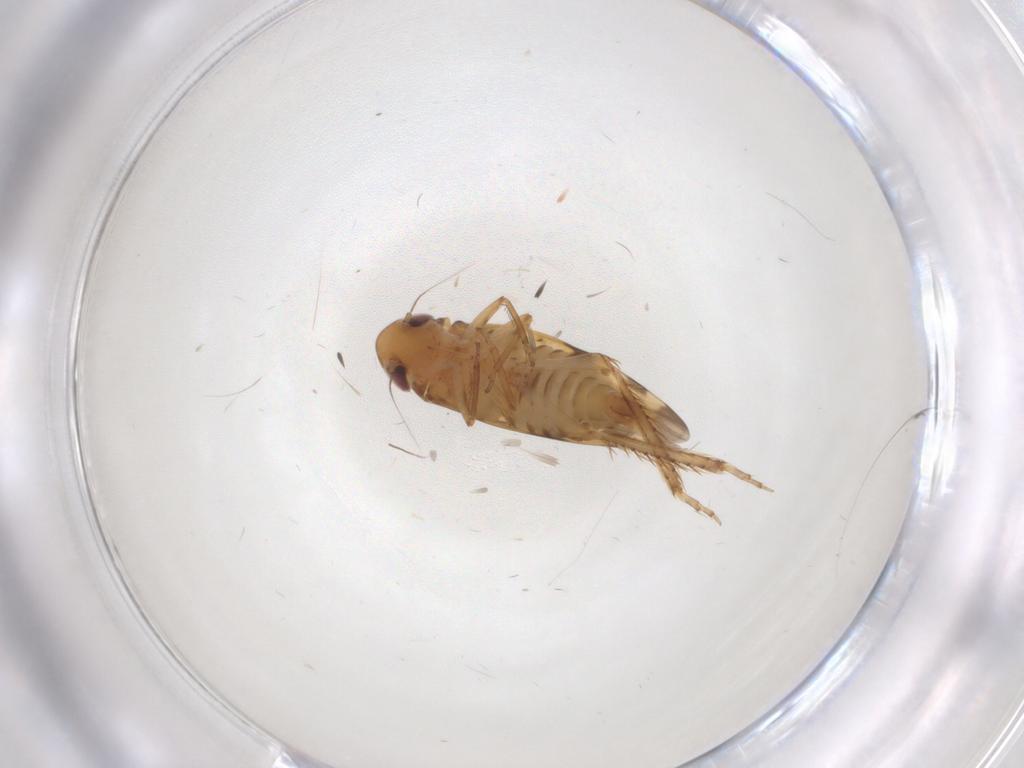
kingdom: Animalia
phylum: Arthropoda
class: Insecta
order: Hemiptera
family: Cicadellidae
